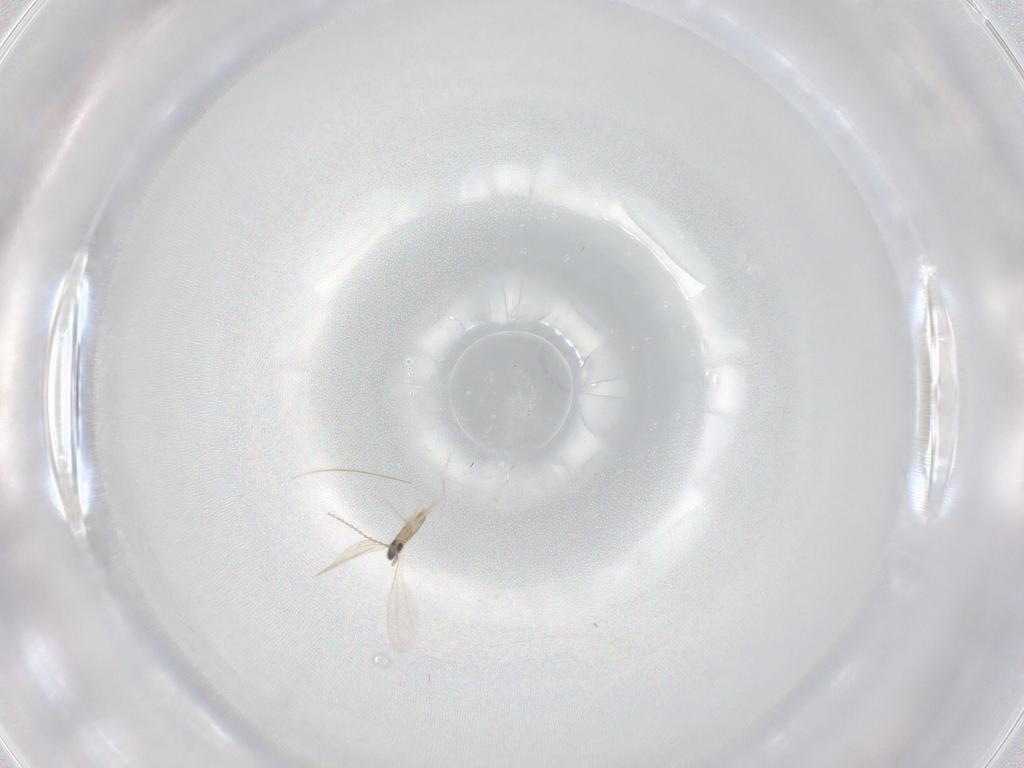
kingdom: Animalia
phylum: Arthropoda
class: Insecta
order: Diptera
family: Cecidomyiidae
